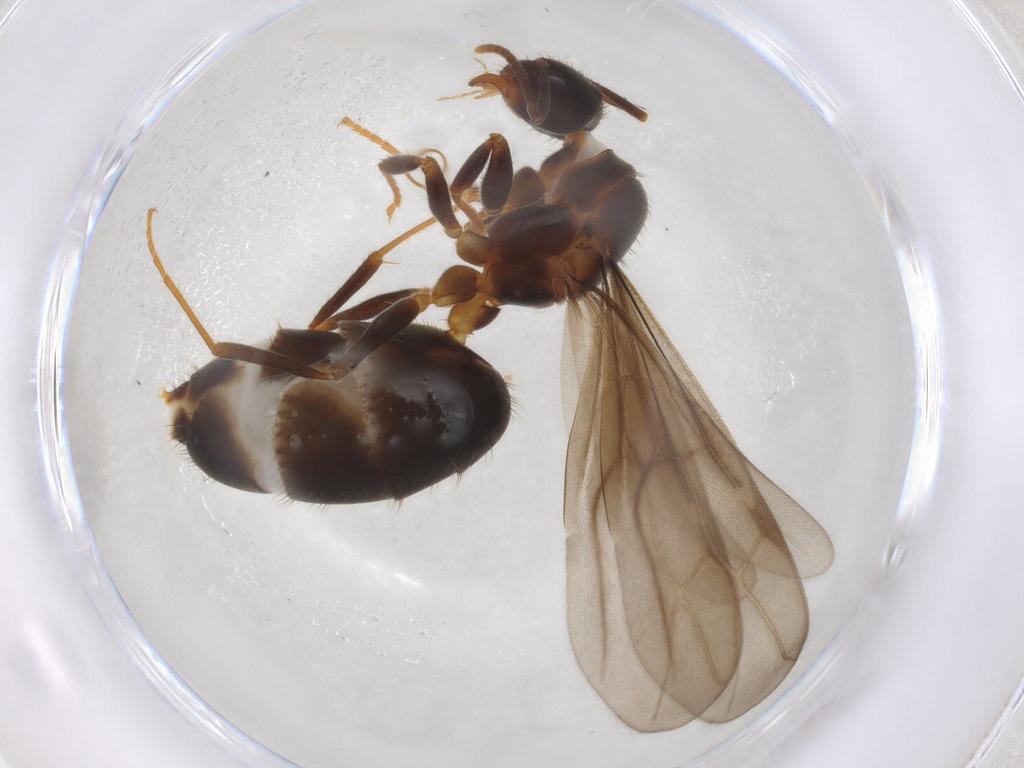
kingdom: Animalia
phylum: Arthropoda
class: Insecta
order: Hymenoptera
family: Formicidae
